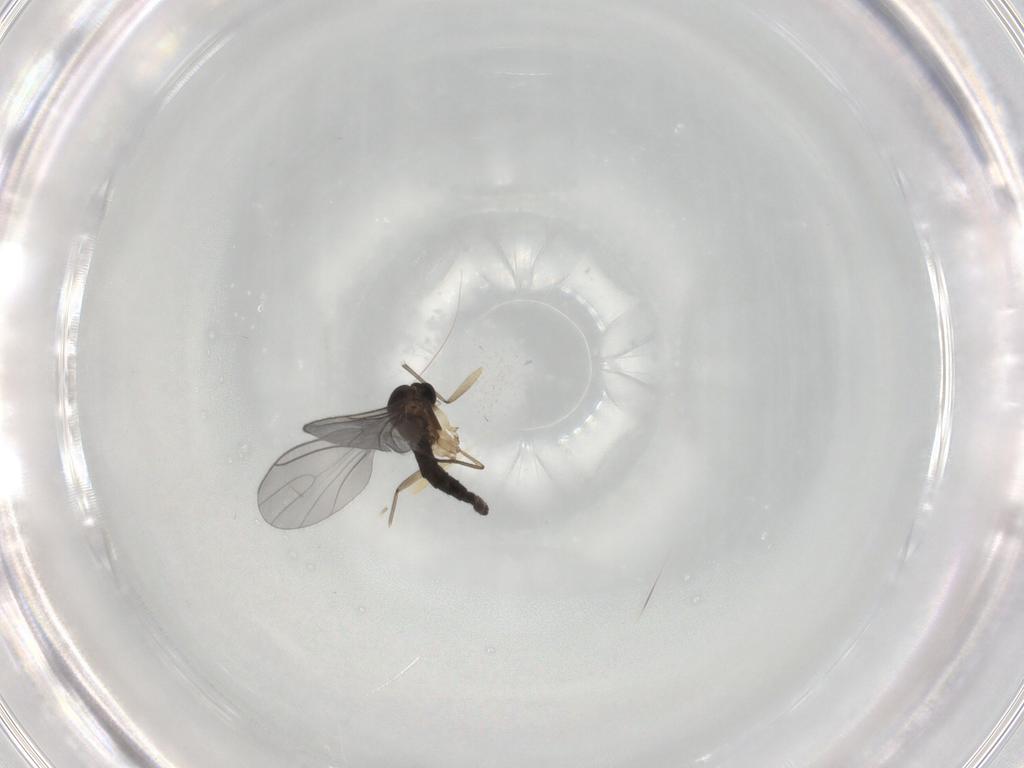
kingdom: Animalia
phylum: Arthropoda
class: Insecta
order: Diptera
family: Sciaridae
